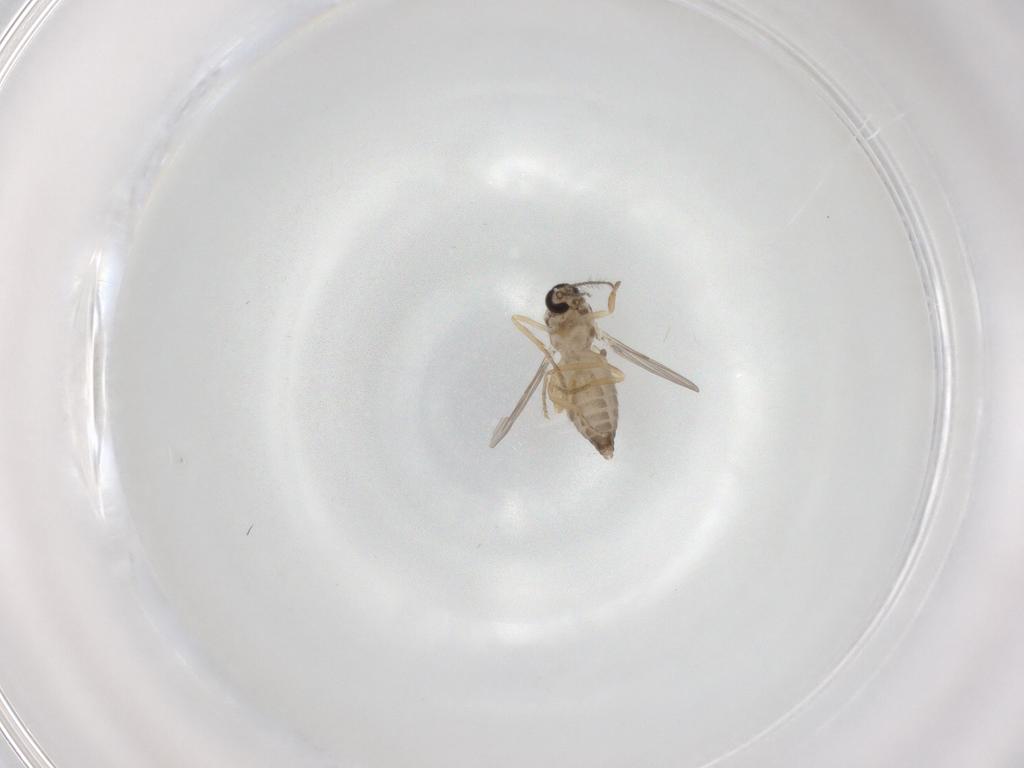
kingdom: Animalia
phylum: Arthropoda
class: Insecta
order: Diptera
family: Ceratopogonidae
